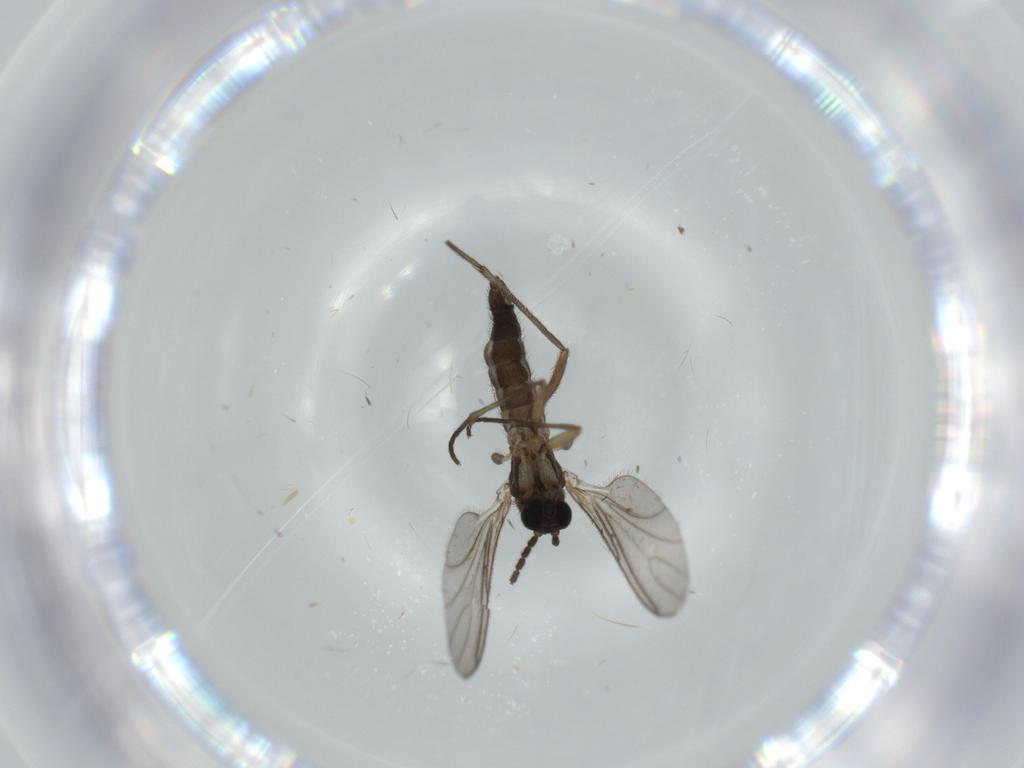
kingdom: Animalia
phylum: Arthropoda
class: Insecta
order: Diptera
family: Sciaridae
